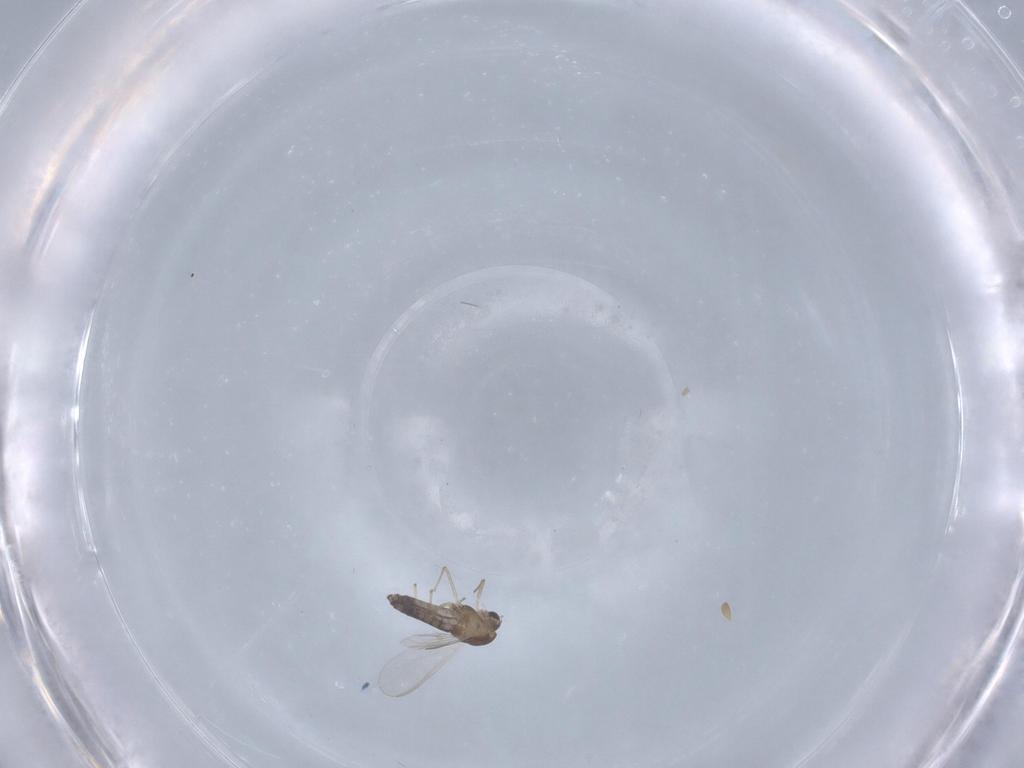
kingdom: Animalia
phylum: Arthropoda
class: Insecta
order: Diptera
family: Chironomidae
